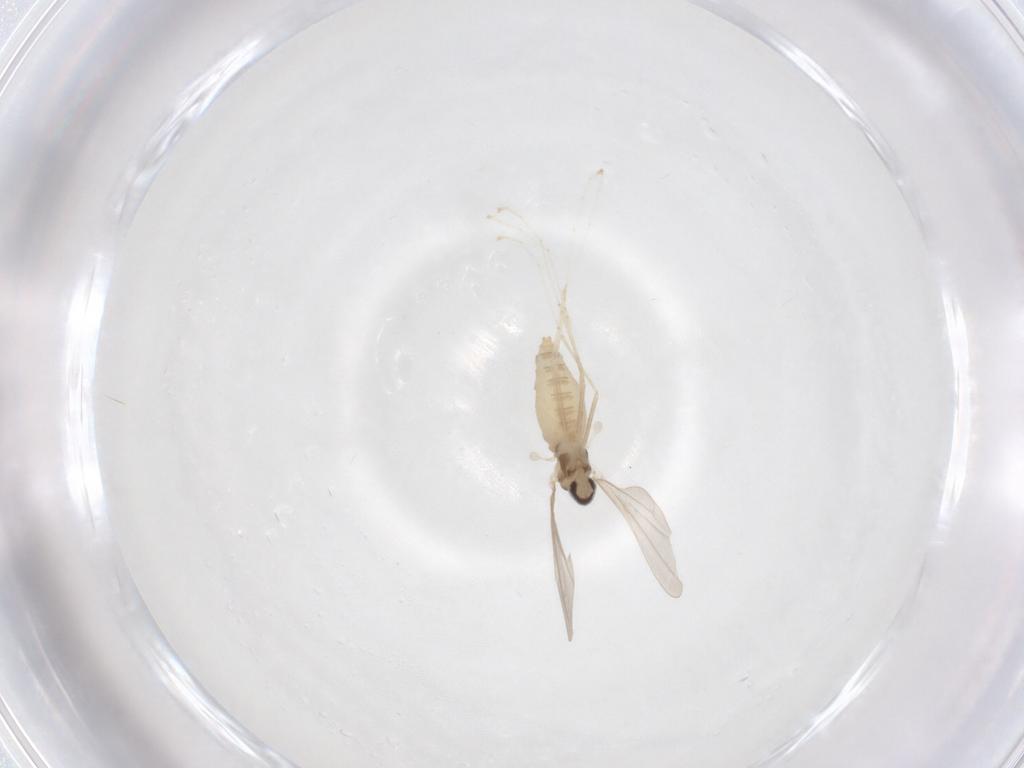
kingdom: Animalia
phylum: Arthropoda
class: Insecta
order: Diptera
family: Cecidomyiidae
